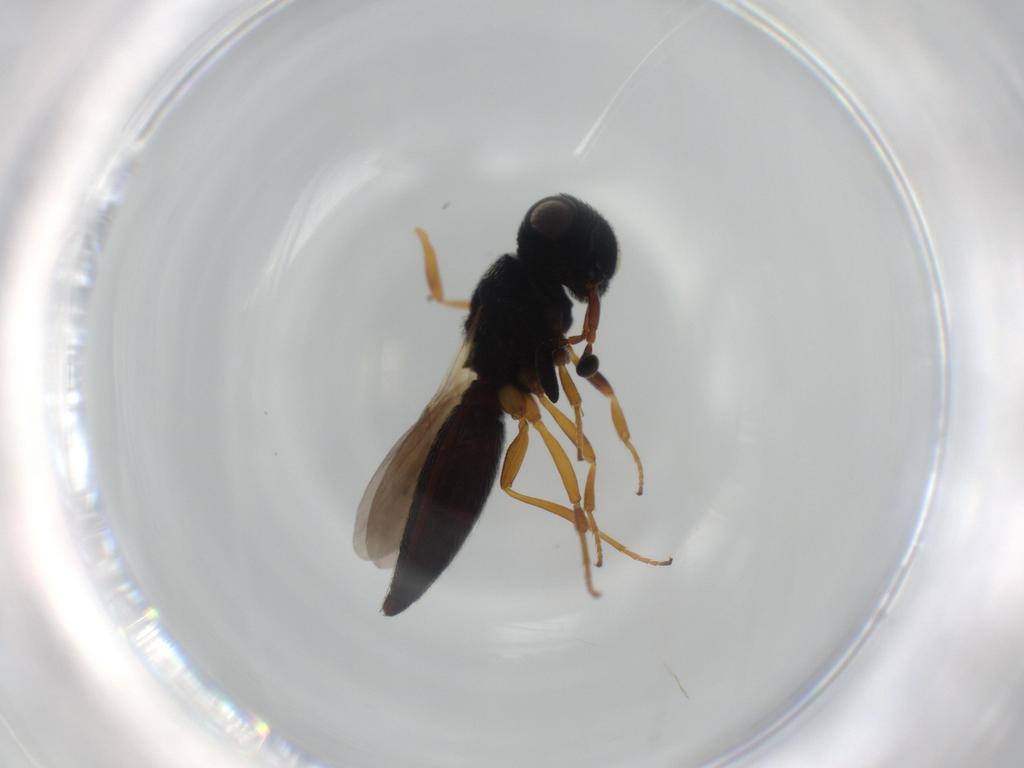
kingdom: Animalia
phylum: Arthropoda
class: Insecta
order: Hymenoptera
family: Scelionidae
